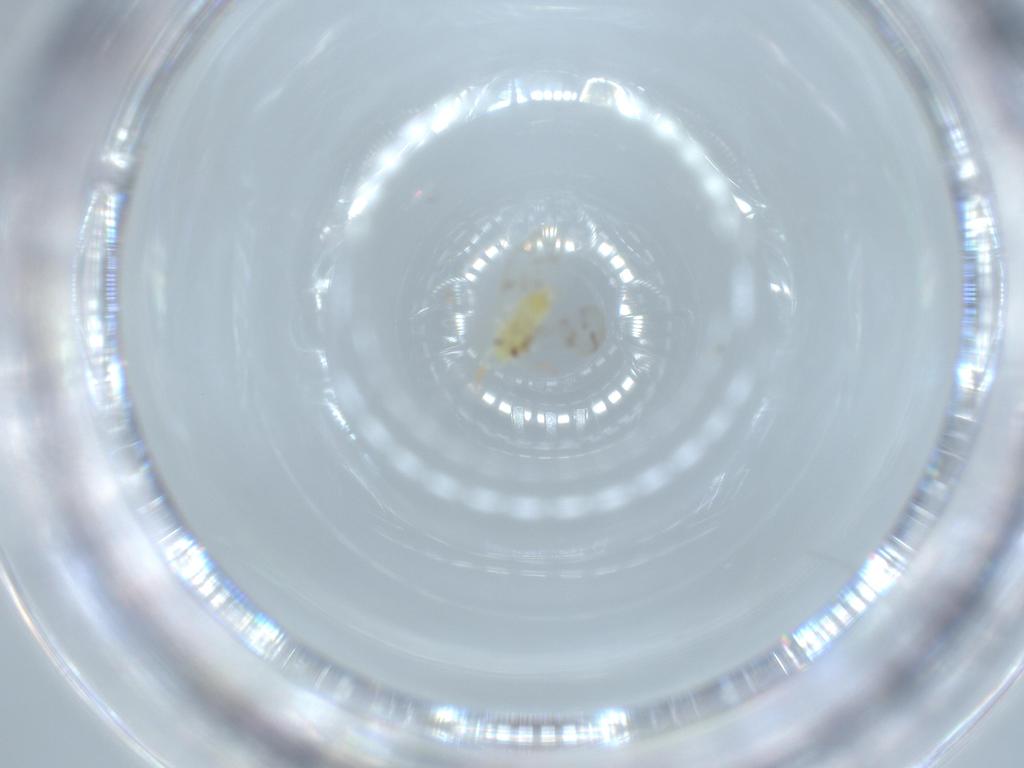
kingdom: Animalia
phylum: Arthropoda
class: Insecta
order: Hemiptera
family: Aleyrodidae
